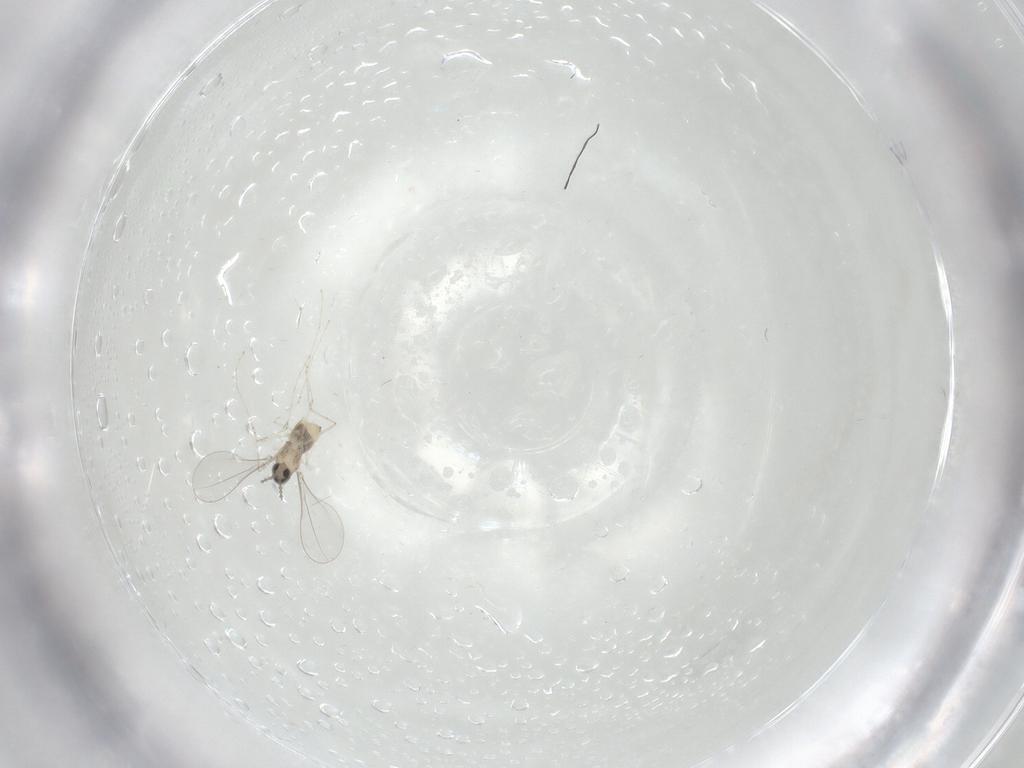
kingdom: Animalia
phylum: Arthropoda
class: Insecta
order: Diptera
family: Cecidomyiidae
